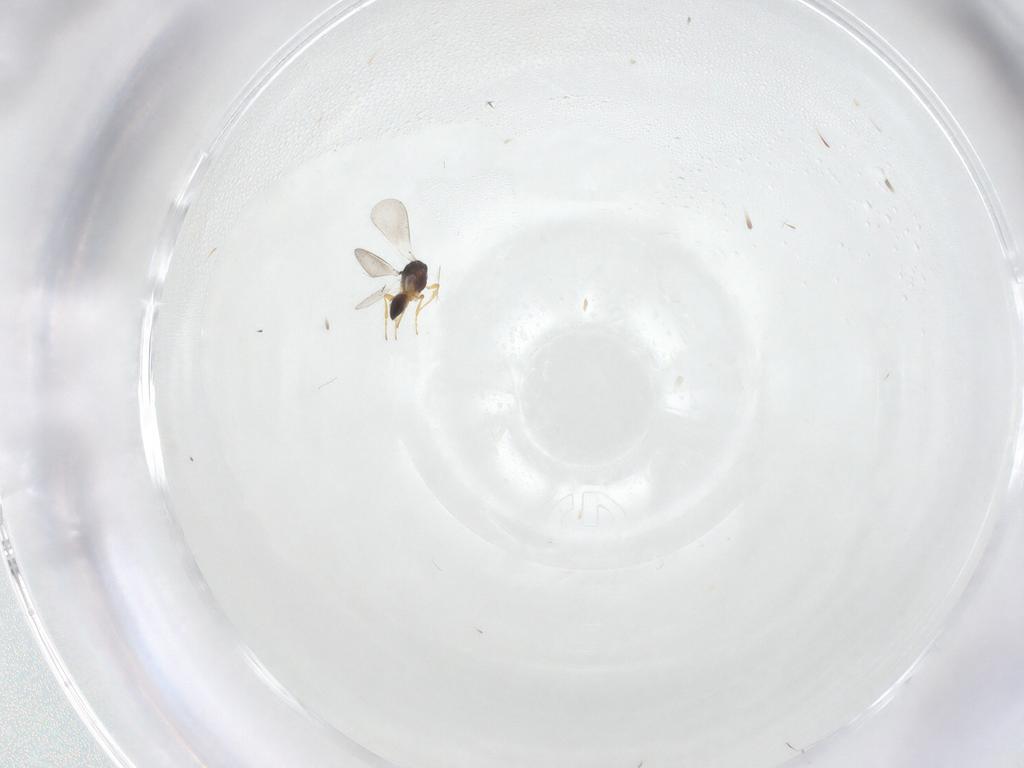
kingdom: Animalia
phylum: Arthropoda
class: Insecta
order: Hymenoptera
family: Platygastridae
